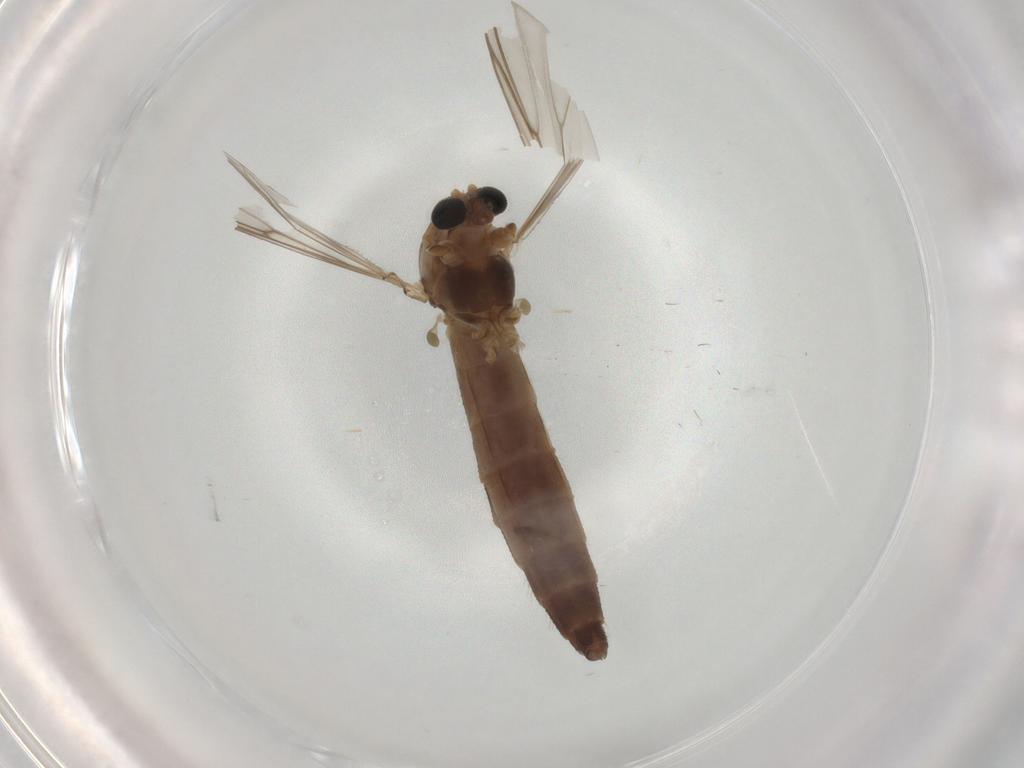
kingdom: Animalia
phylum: Arthropoda
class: Insecta
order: Diptera
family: Chironomidae
